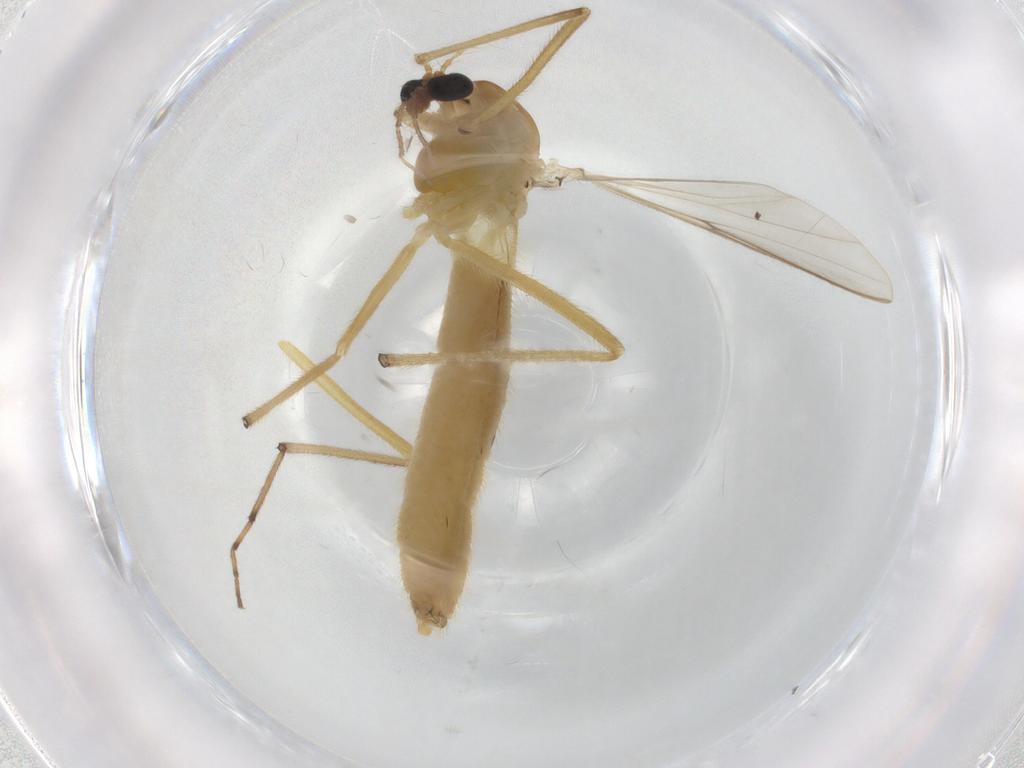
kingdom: Animalia
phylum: Arthropoda
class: Insecta
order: Diptera
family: Chironomidae
